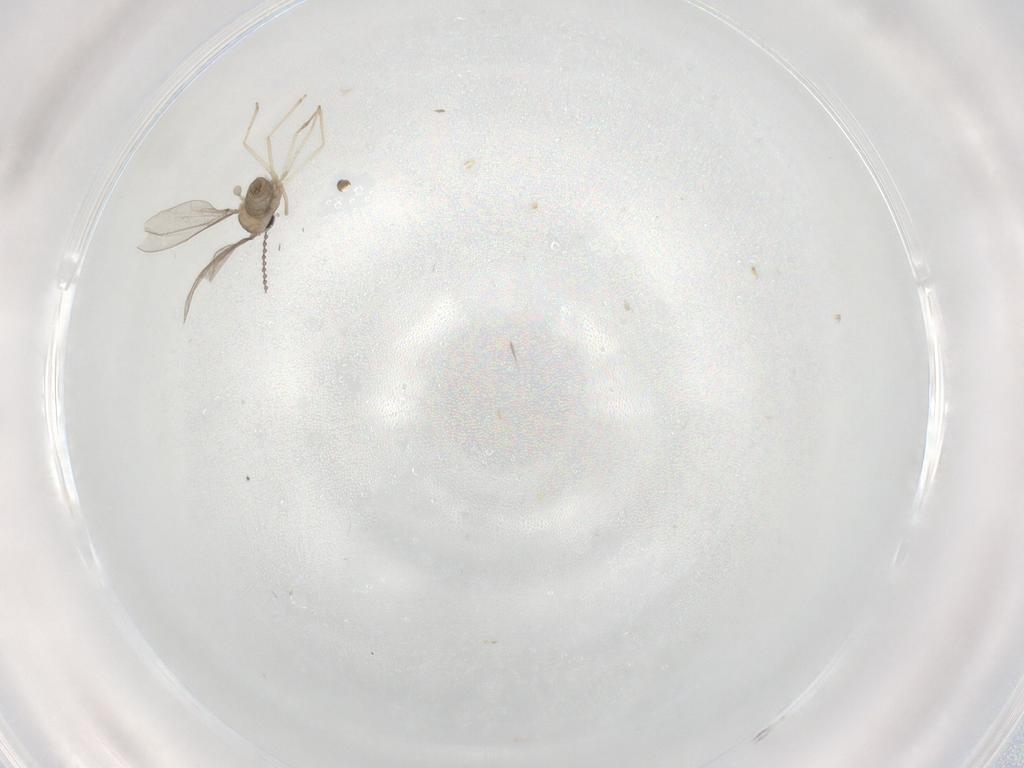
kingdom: Animalia
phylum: Arthropoda
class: Insecta
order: Diptera
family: Cecidomyiidae
